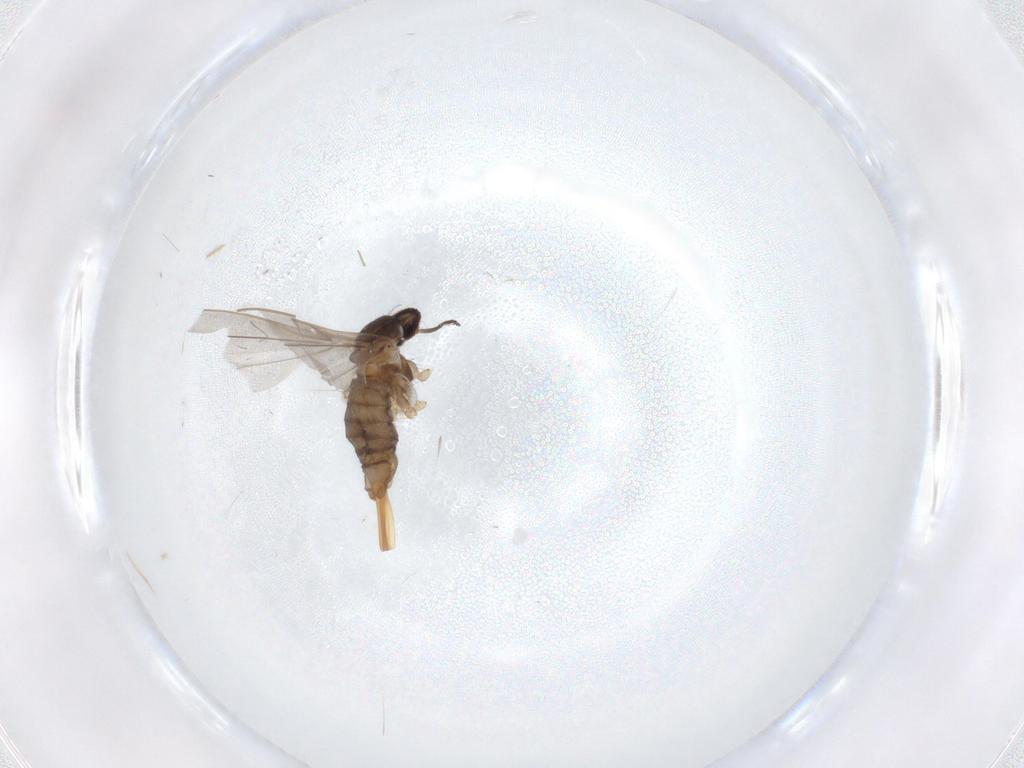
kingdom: Animalia
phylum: Arthropoda
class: Insecta
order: Diptera
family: Cecidomyiidae
